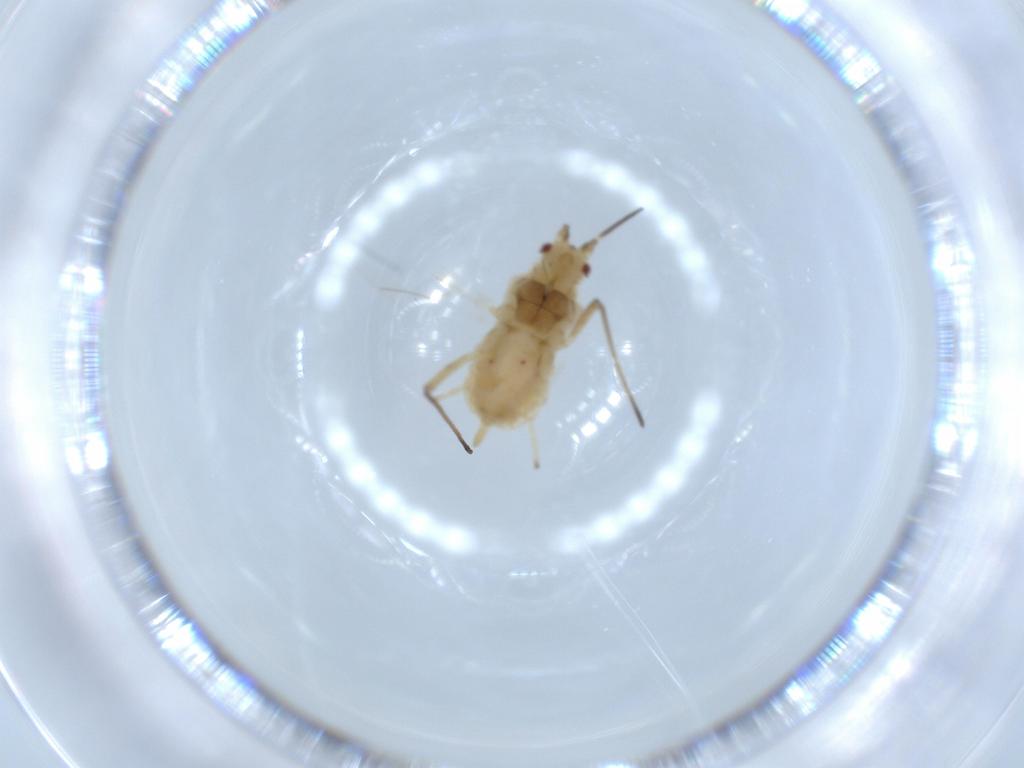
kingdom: Animalia
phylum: Arthropoda
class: Insecta
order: Hemiptera
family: Aphididae
